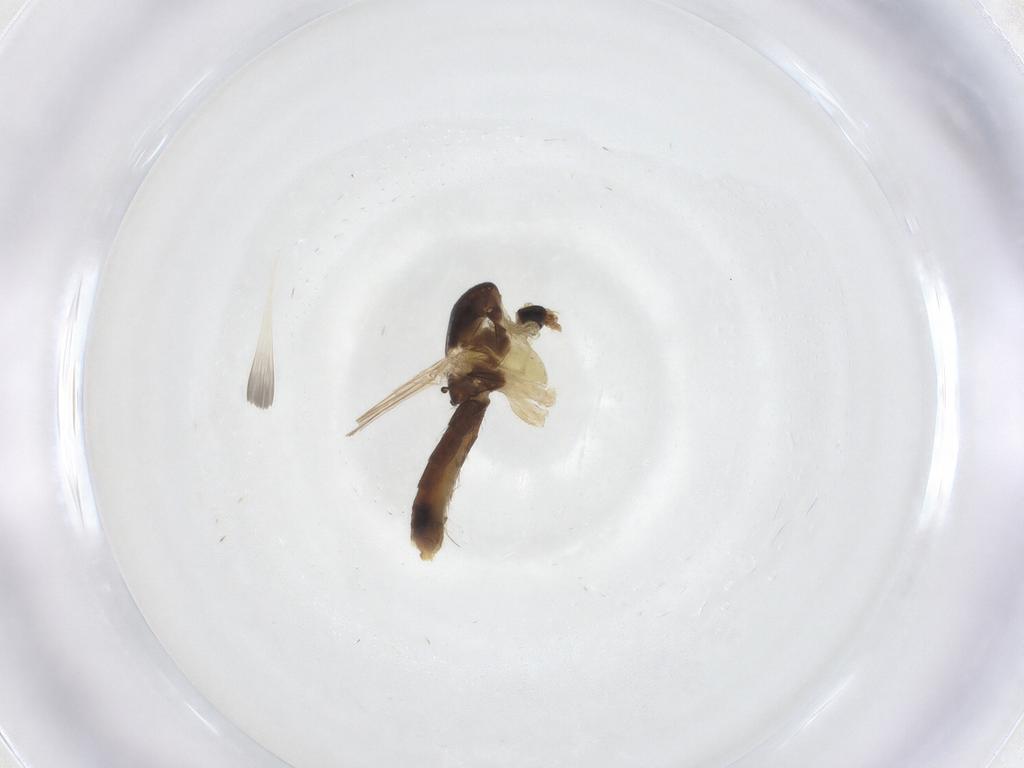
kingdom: Animalia
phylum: Arthropoda
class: Insecta
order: Diptera
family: Chironomidae
